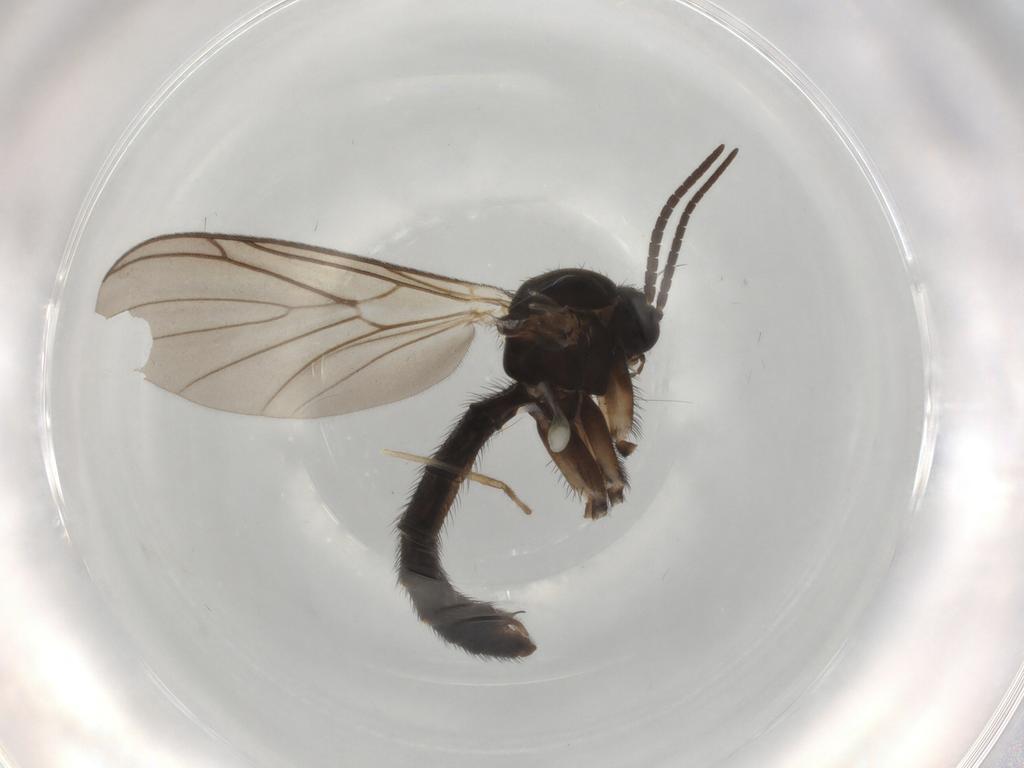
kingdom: Animalia
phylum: Arthropoda
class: Insecta
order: Diptera
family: Chironomidae
